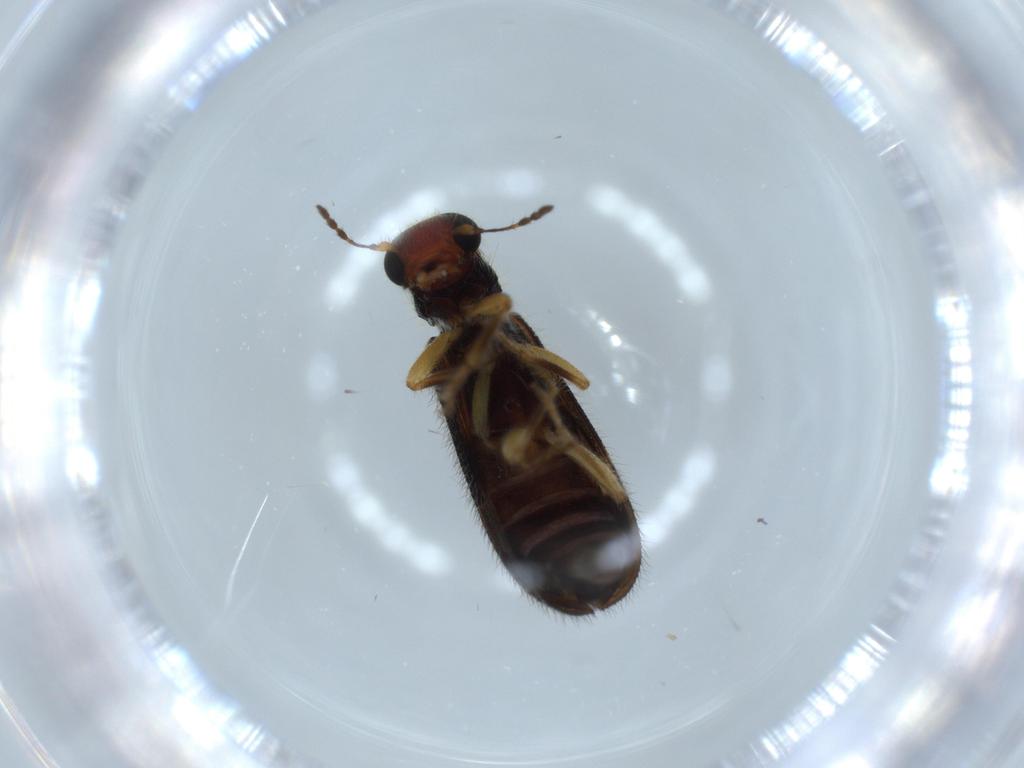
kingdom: Animalia
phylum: Arthropoda
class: Insecta
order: Coleoptera
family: Cleridae
